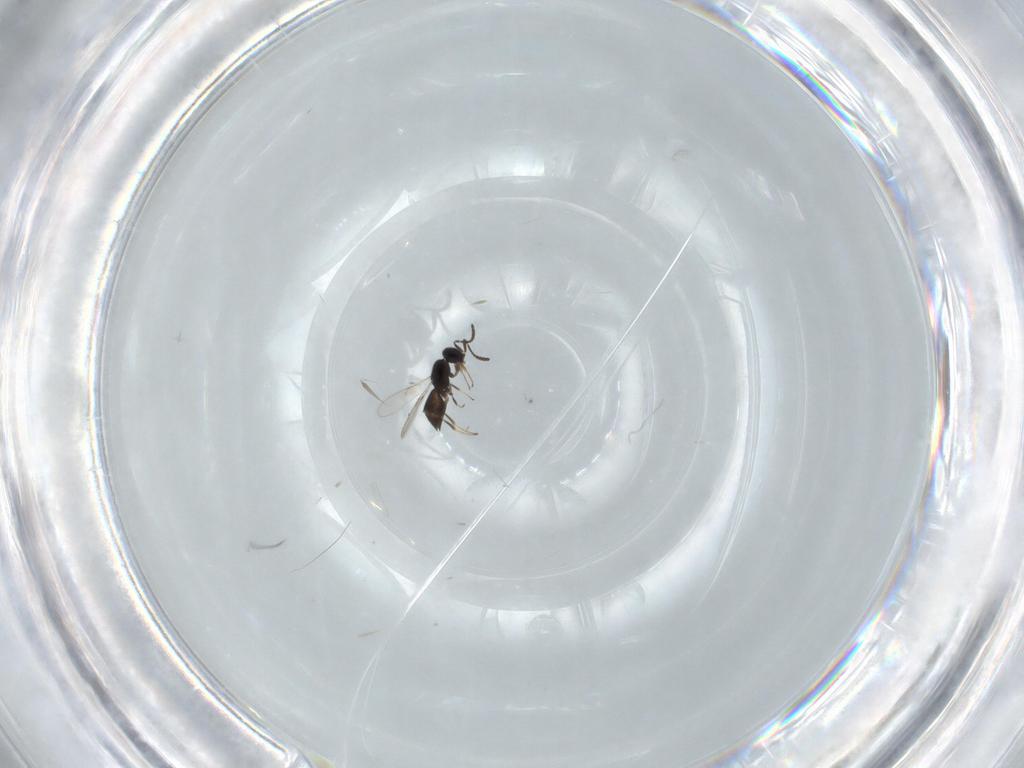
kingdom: Animalia
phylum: Arthropoda
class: Insecta
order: Hymenoptera
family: Scelionidae
